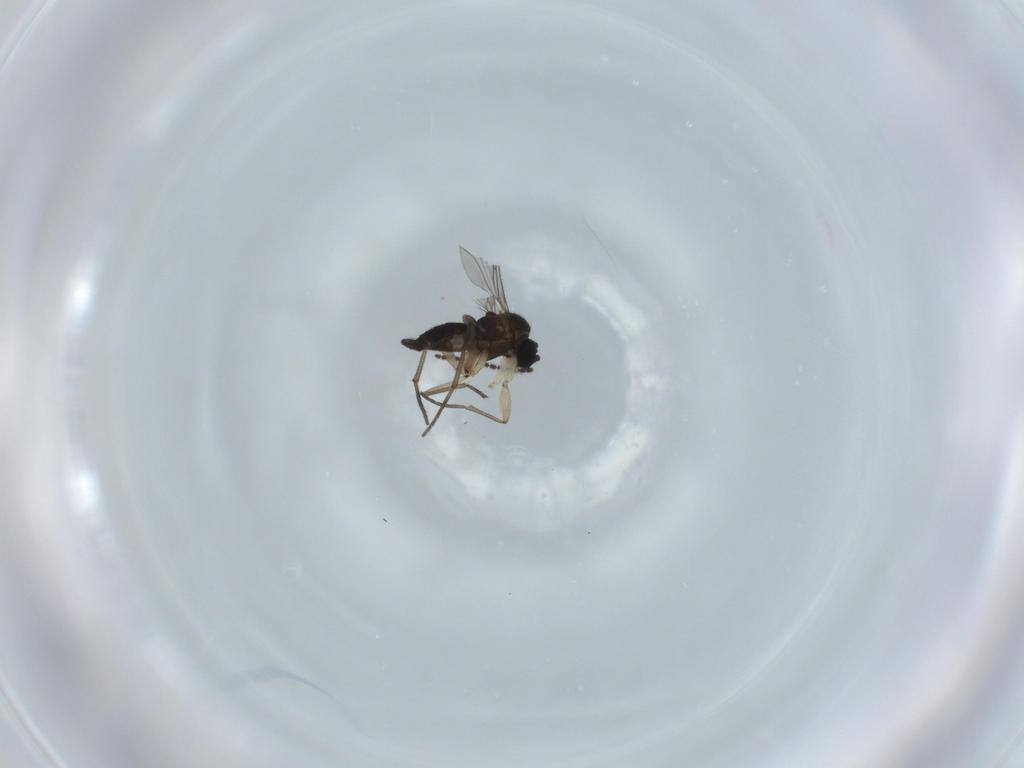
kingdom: Animalia
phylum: Arthropoda
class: Insecta
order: Diptera
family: Sciaridae
